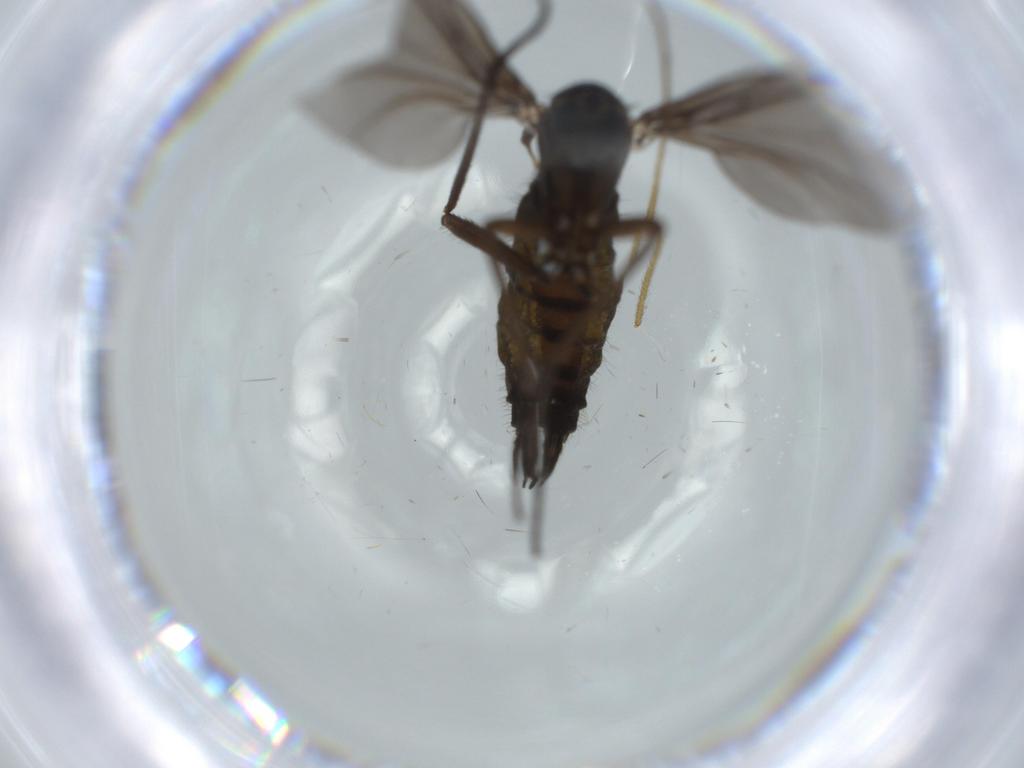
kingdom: Animalia
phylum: Arthropoda
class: Insecta
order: Diptera
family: Sciaridae
